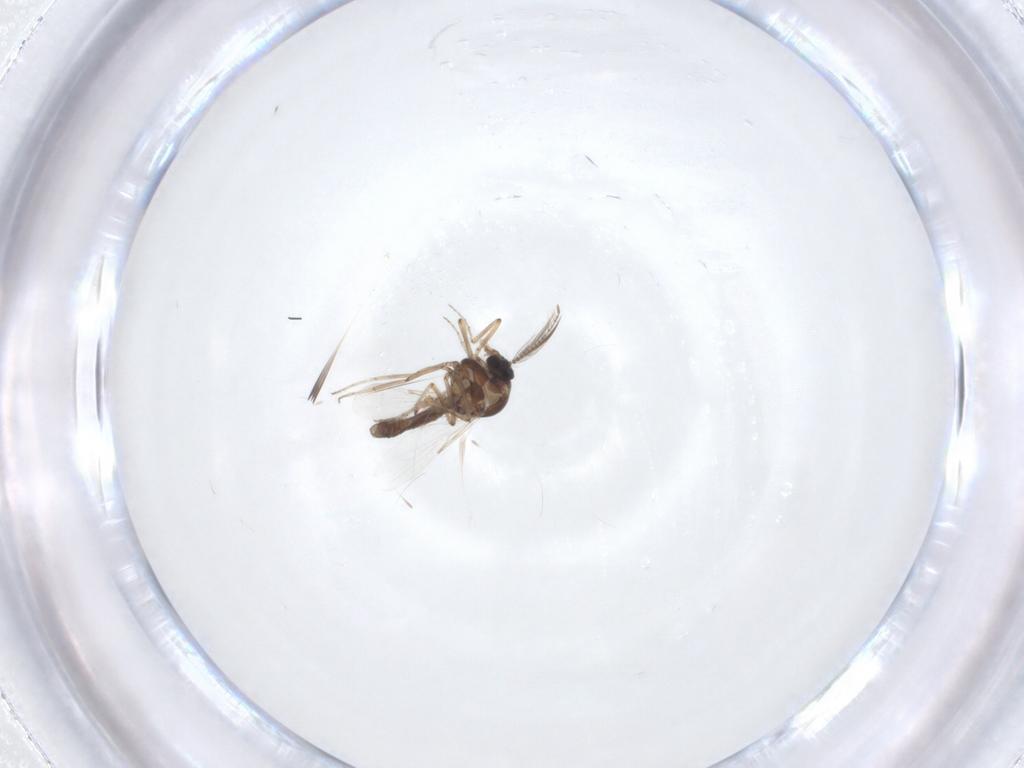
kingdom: Animalia
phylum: Arthropoda
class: Insecta
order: Diptera
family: Ceratopogonidae
